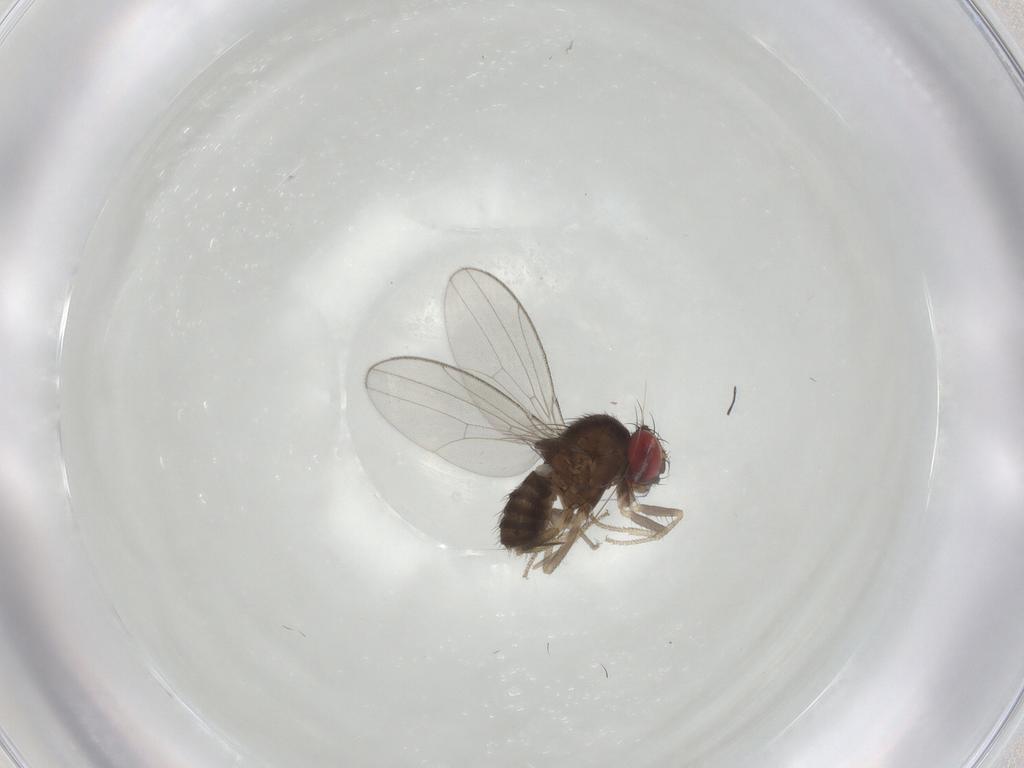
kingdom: Animalia
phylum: Arthropoda
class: Insecta
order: Diptera
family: Drosophilidae
